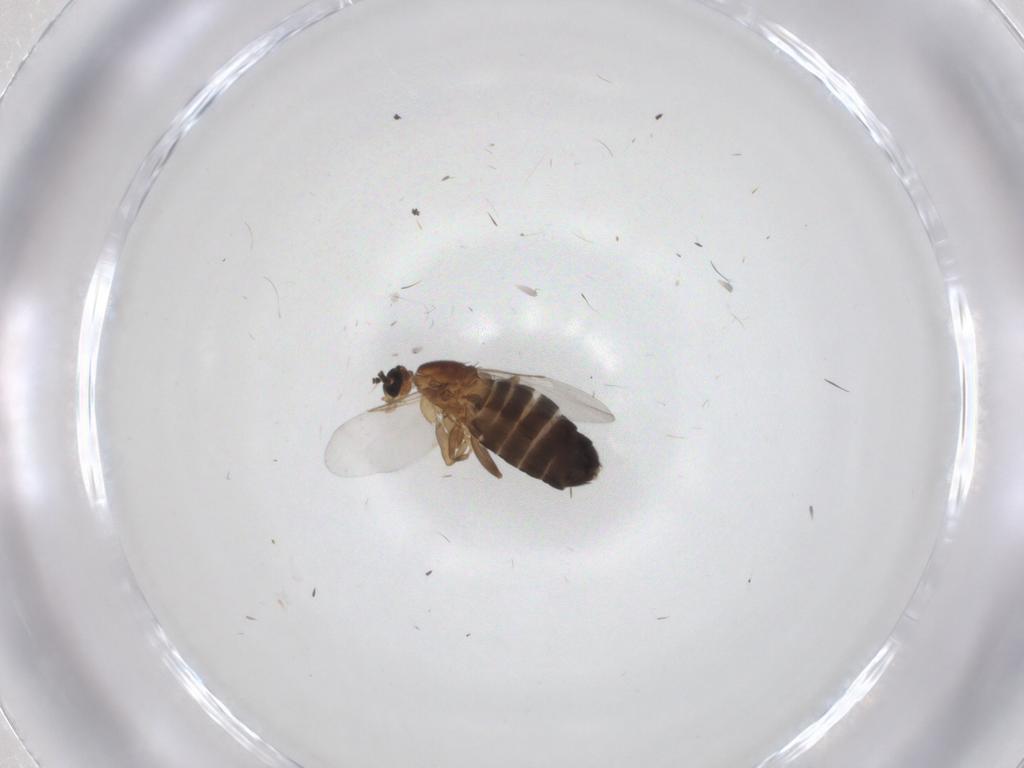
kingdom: Animalia
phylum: Arthropoda
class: Insecta
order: Diptera
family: Scatopsidae
